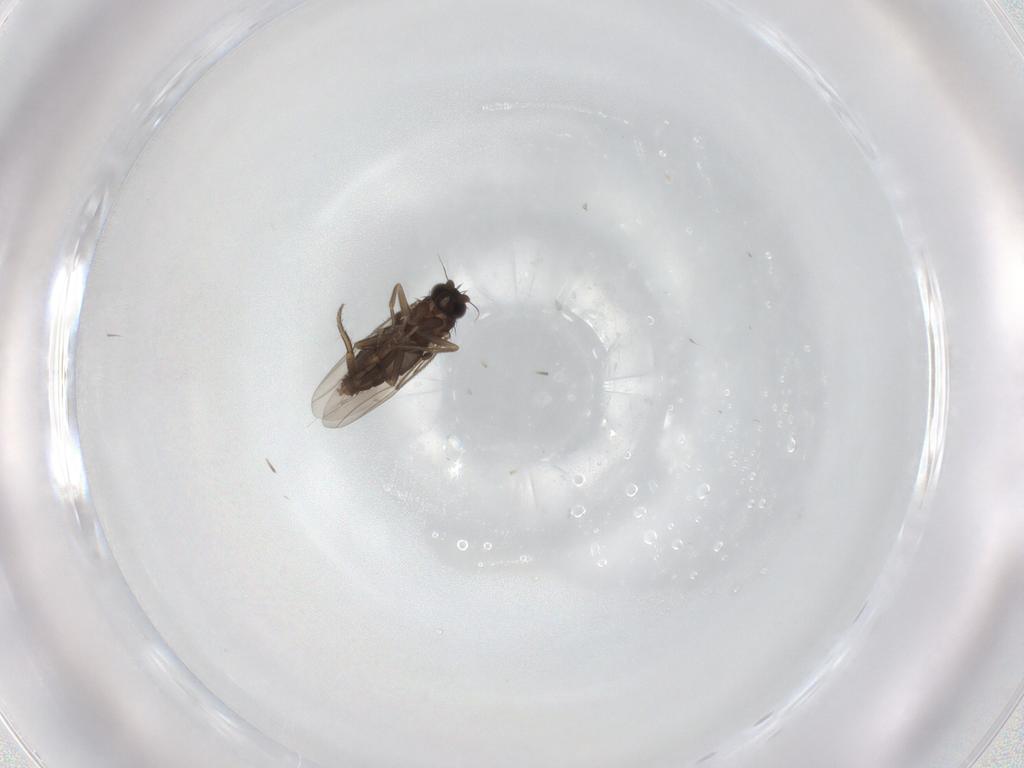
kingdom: Animalia
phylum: Arthropoda
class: Insecta
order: Diptera
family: Phoridae
